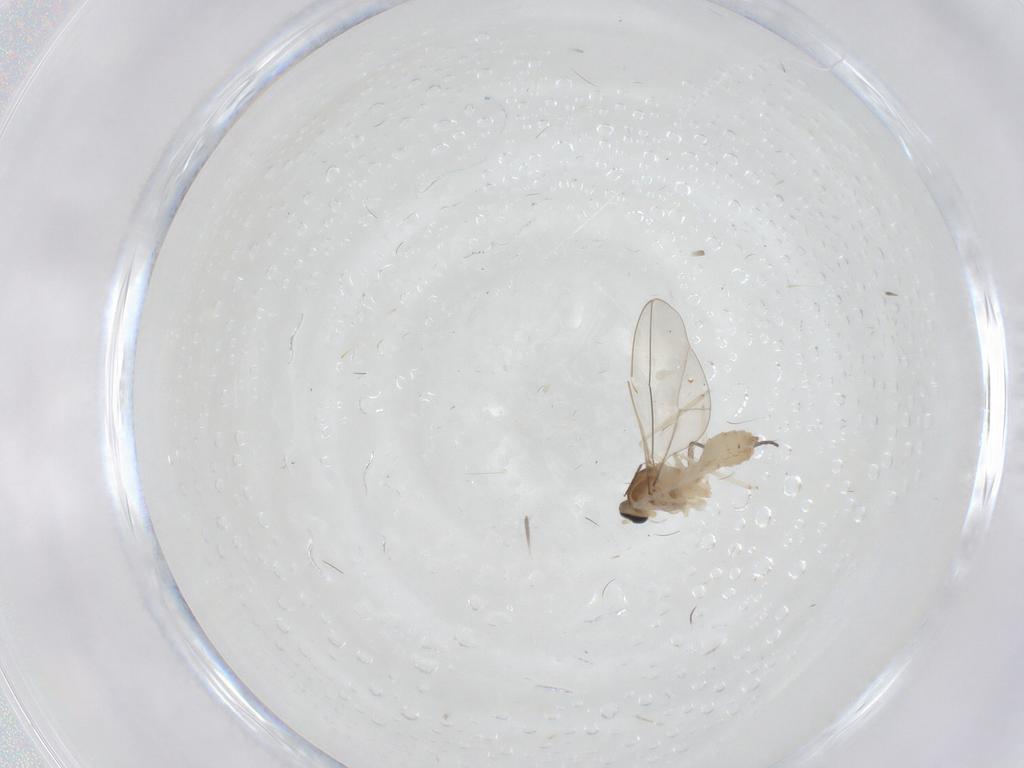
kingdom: Animalia
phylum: Arthropoda
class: Insecta
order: Diptera
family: Cecidomyiidae
